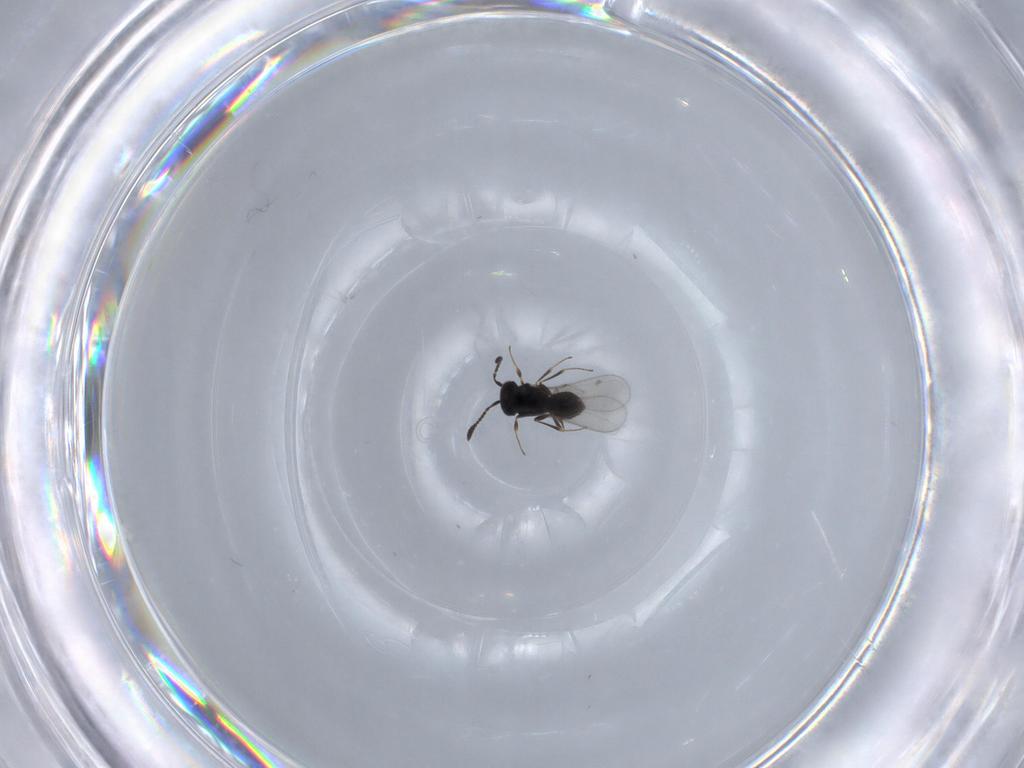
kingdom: Animalia
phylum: Arthropoda
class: Insecta
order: Hymenoptera
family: Scelionidae
